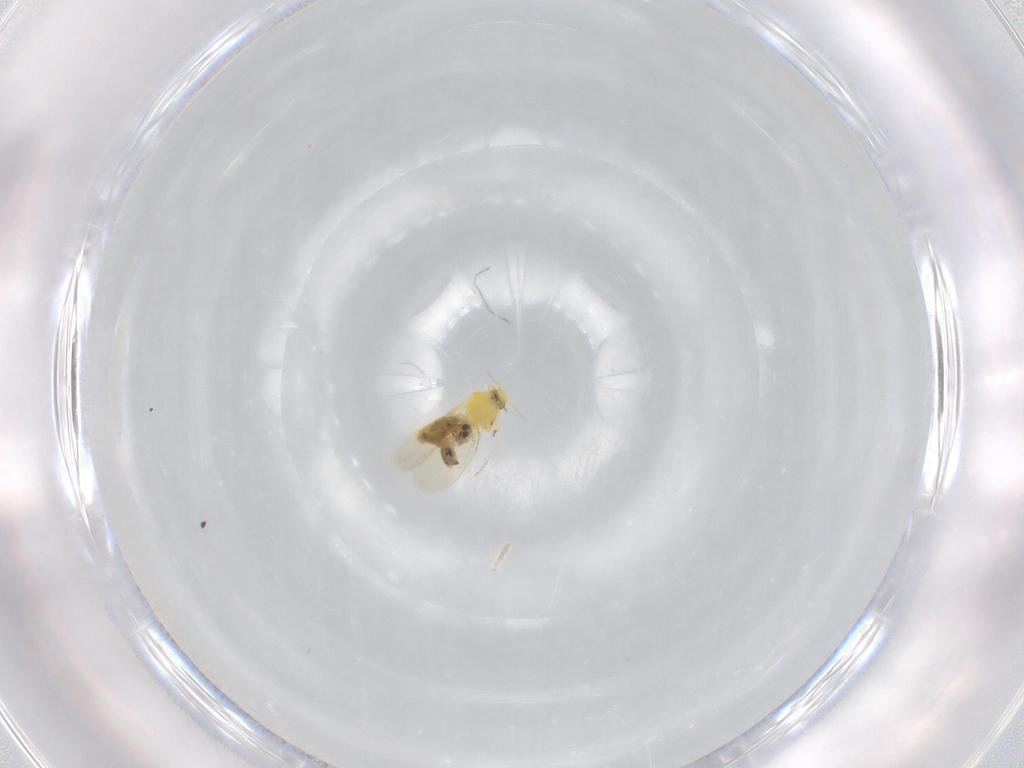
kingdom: Animalia
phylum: Arthropoda
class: Insecta
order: Hemiptera
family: Aleyrodidae
